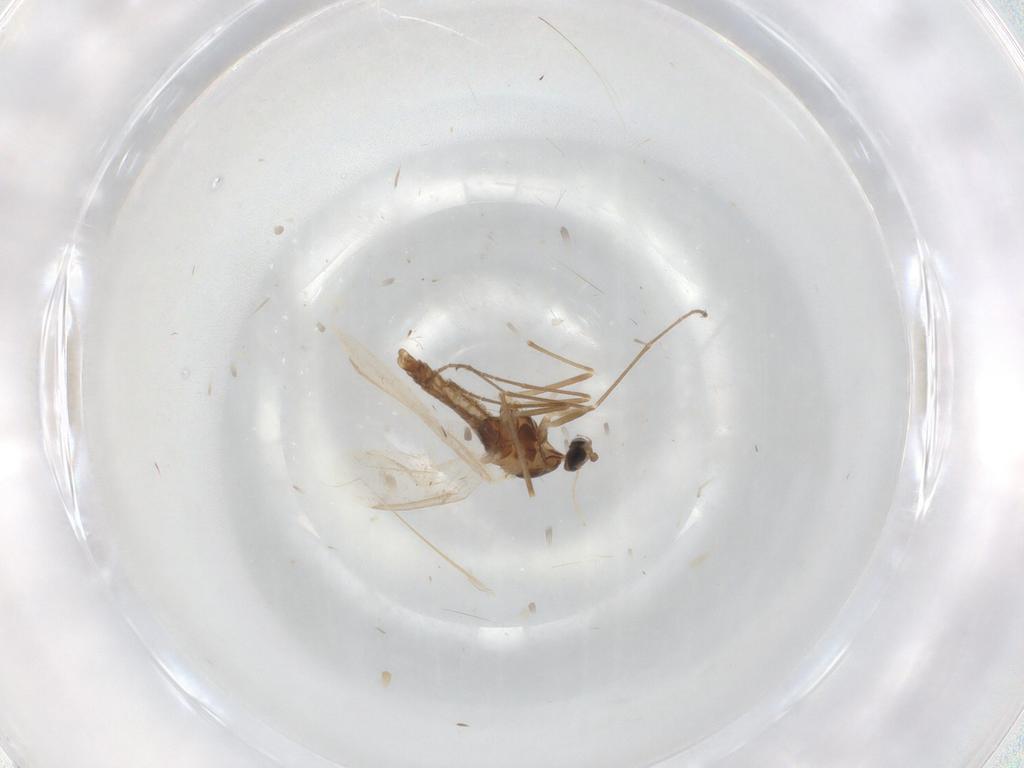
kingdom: Animalia
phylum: Arthropoda
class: Insecta
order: Diptera
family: Cecidomyiidae
